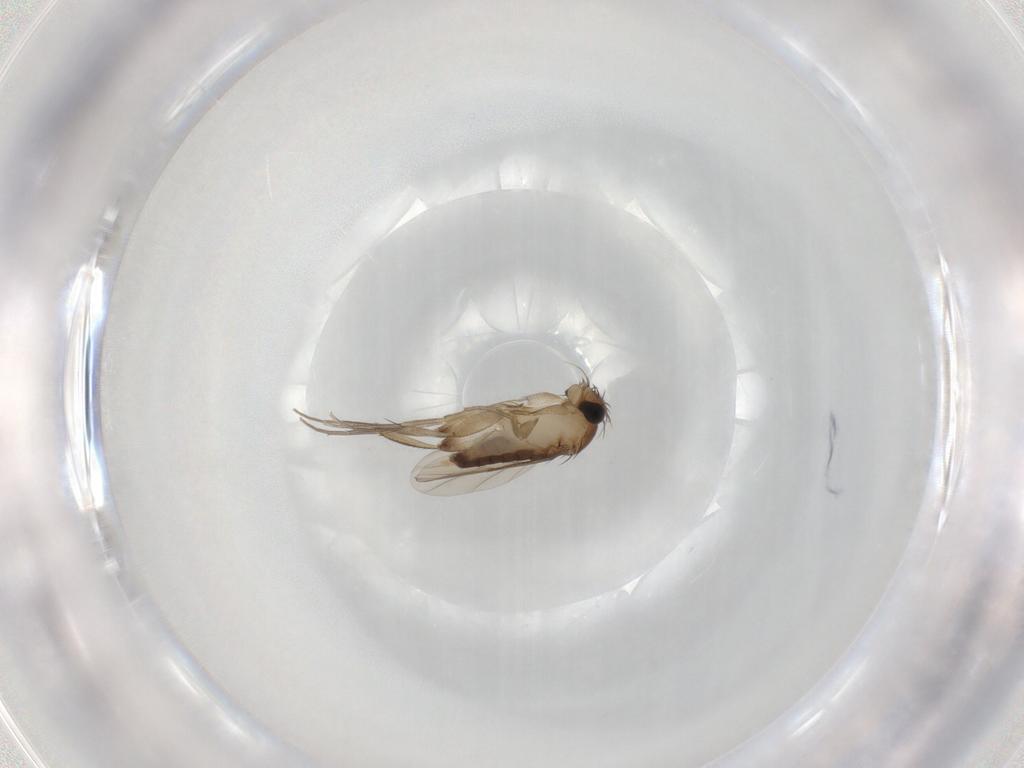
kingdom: Animalia
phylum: Arthropoda
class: Insecta
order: Diptera
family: Phoridae
